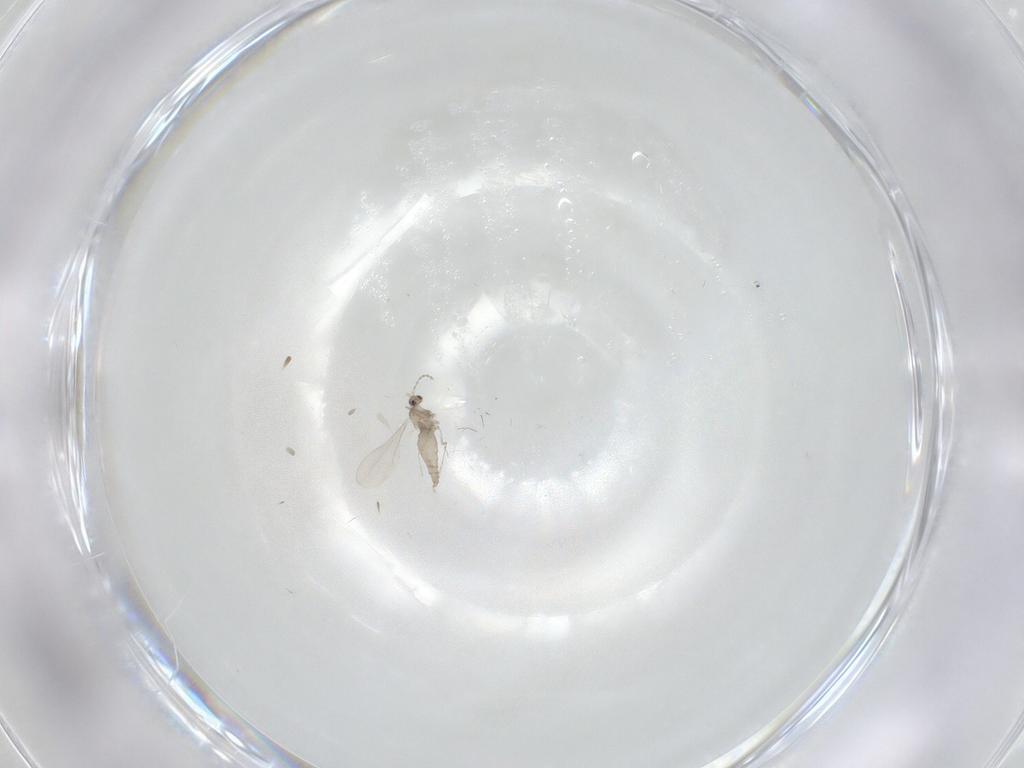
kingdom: Animalia
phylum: Arthropoda
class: Insecta
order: Diptera
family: Cecidomyiidae
